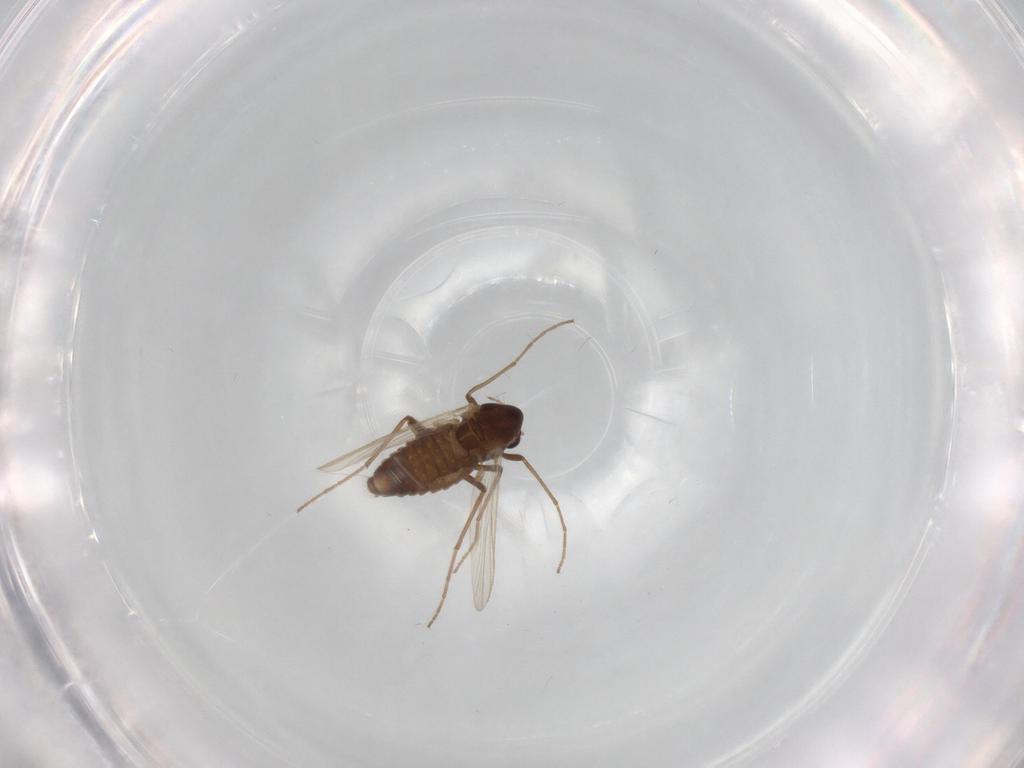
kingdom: Animalia
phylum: Arthropoda
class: Insecta
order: Diptera
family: Chironomidae
